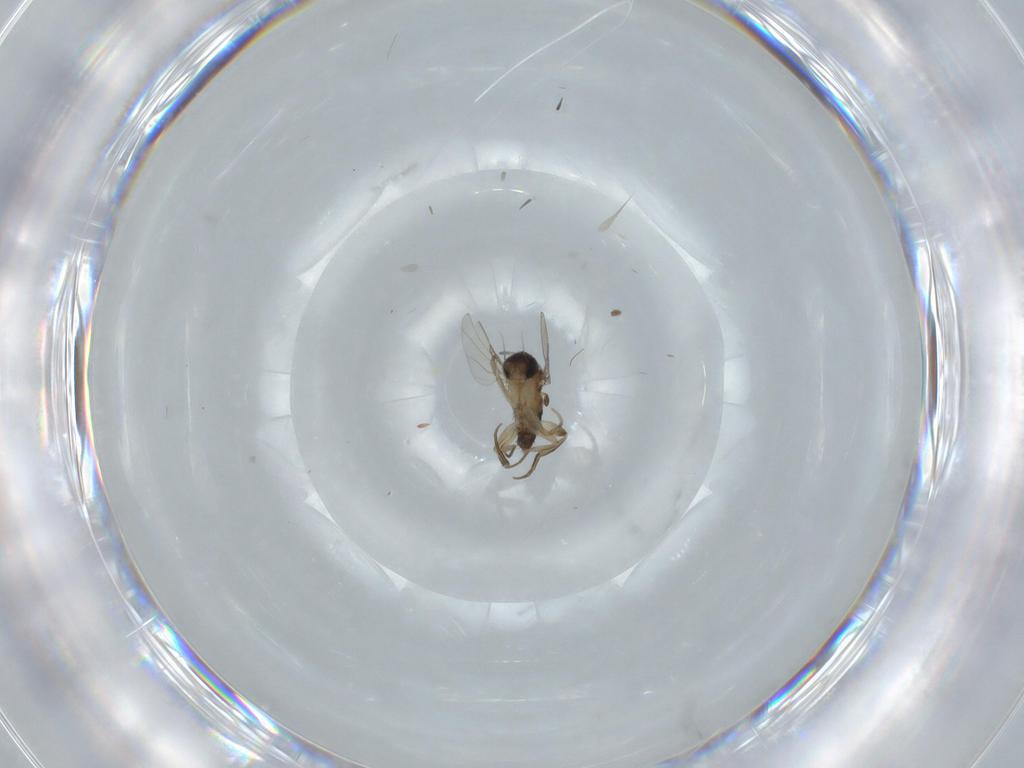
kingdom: Animalia
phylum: Arthropoda
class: Insecta
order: Diptera
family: Phoridae
